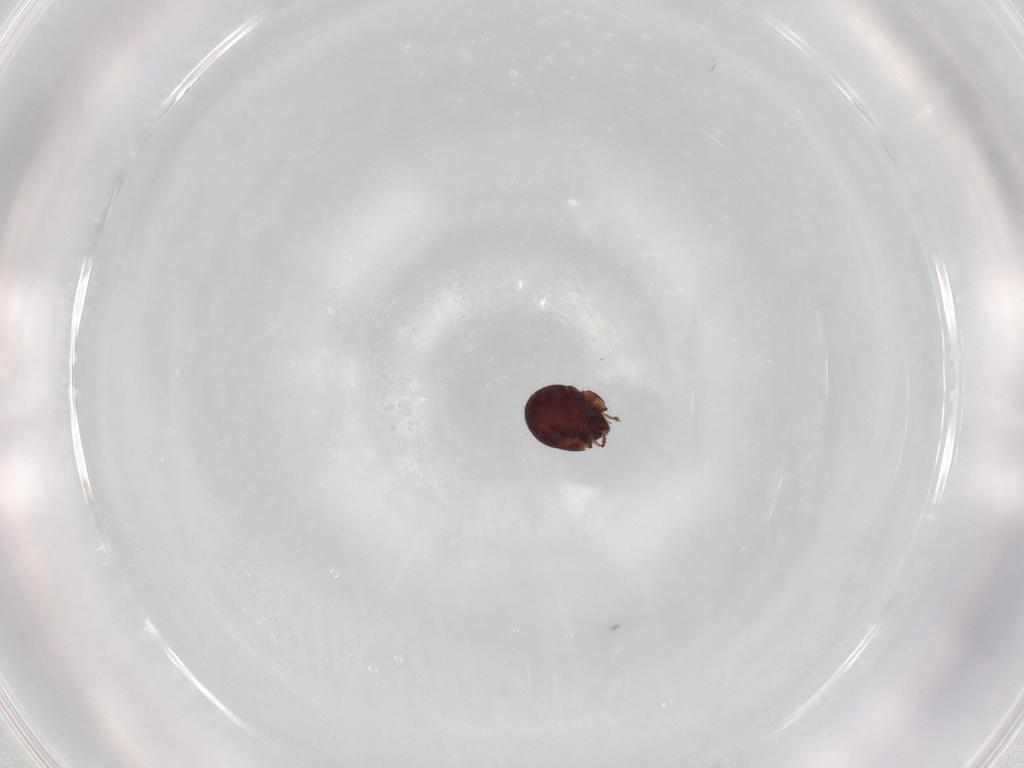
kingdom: Animalia
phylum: Arthropoda
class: Arachnida
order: Sarcoptiformes
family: Humerobatidae
